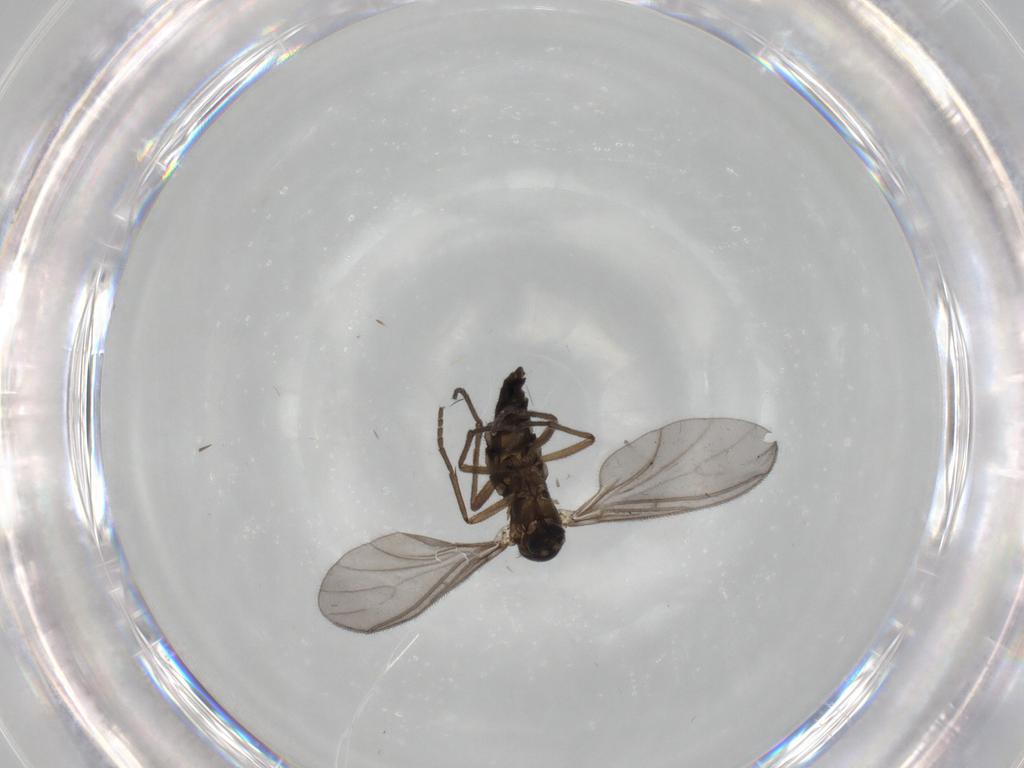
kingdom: Animalia
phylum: Arthropoda
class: Insecta
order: Diptera
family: Sciaridae
